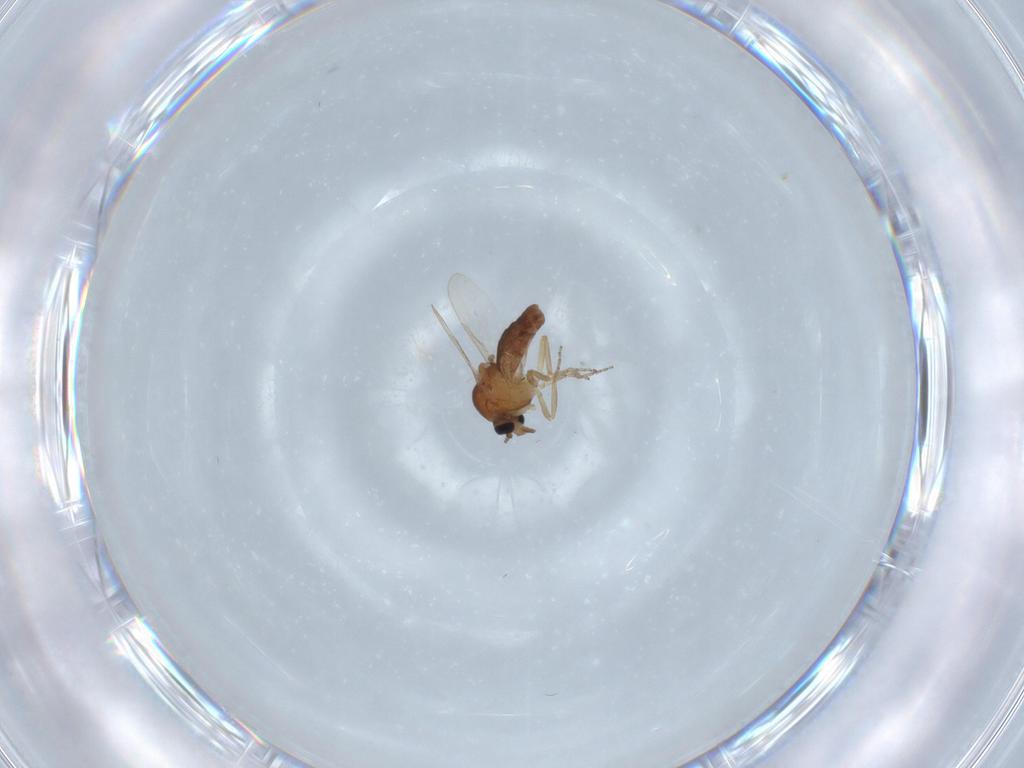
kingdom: Animalia
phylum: Arthropoda
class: Insecta
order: Diptera
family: Ceratopogonidae
